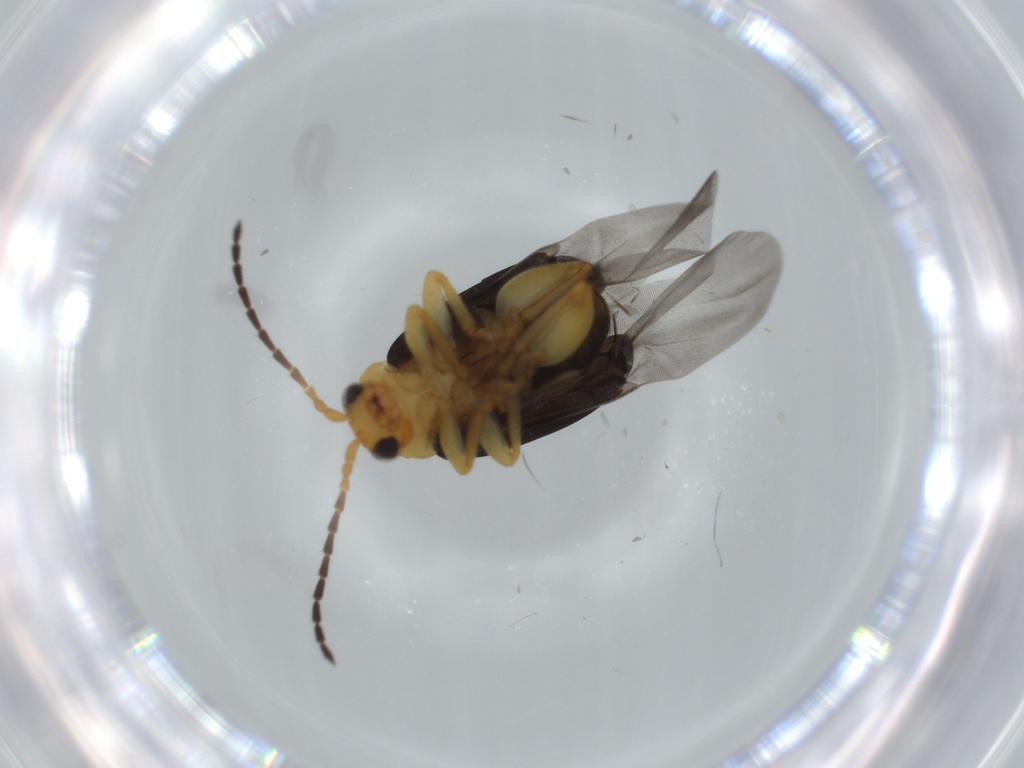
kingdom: Animalia
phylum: Arthropoda
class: Insecta
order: Coleoptera
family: Chrysomelidae
